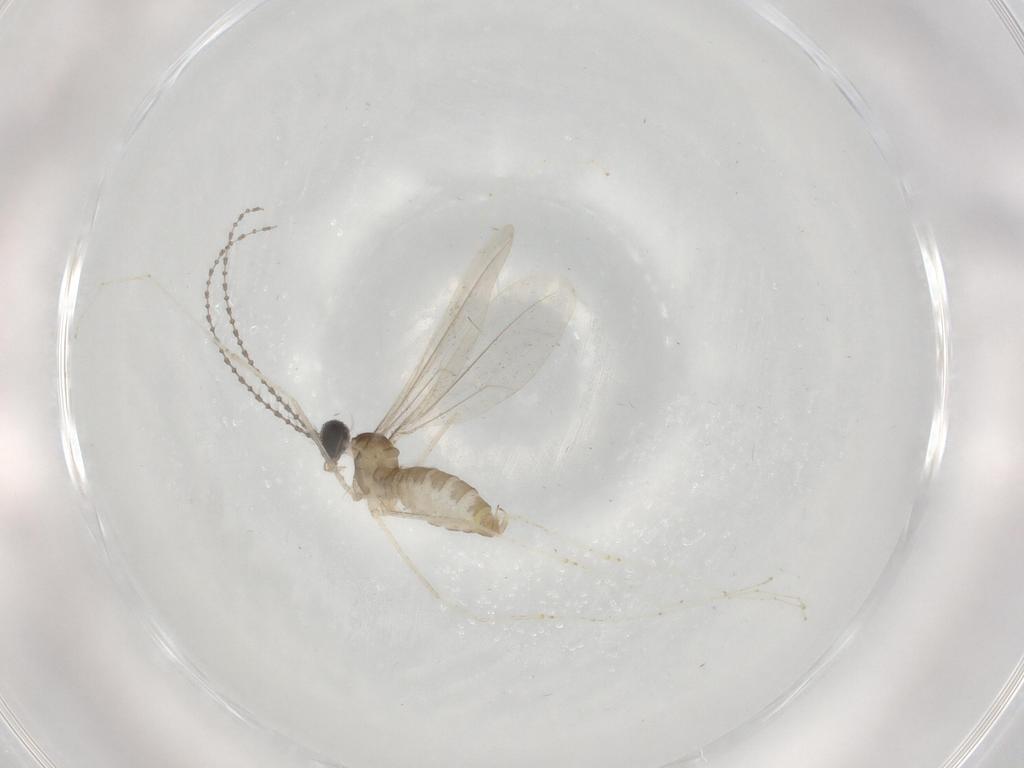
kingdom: Animalia
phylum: Arthropoda
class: Insecta
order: Diptera
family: Cecidomyiidae
